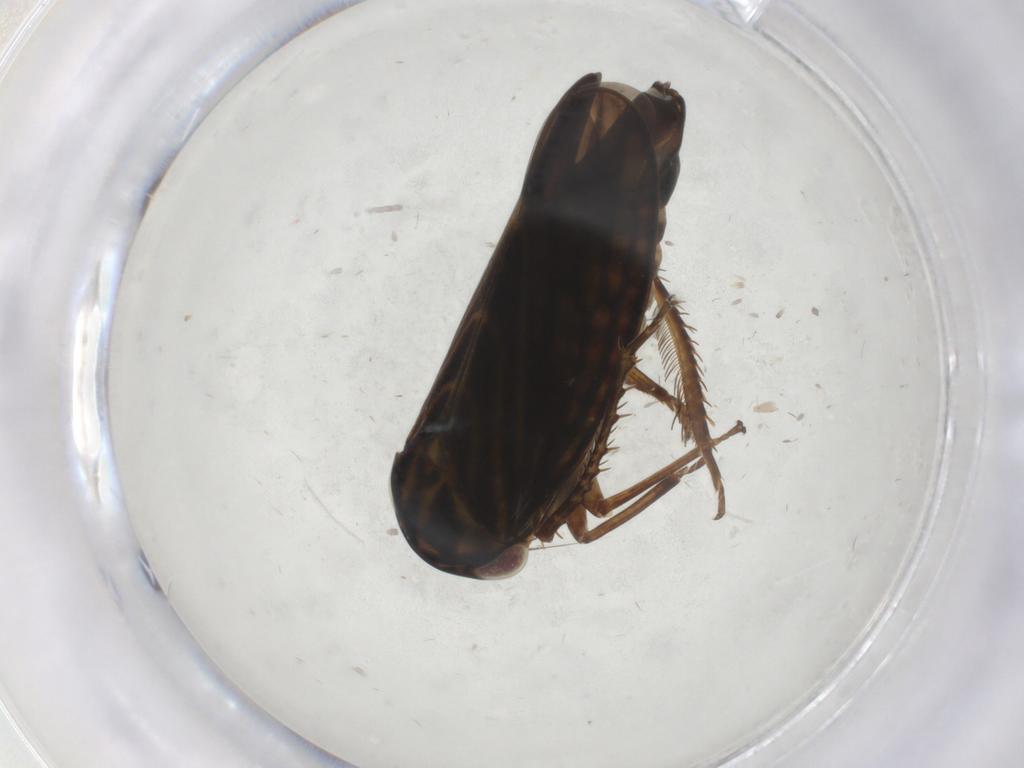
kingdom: Animalia
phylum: Arthropoda
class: Insecta
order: Hemiptera
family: Cicadellidae
